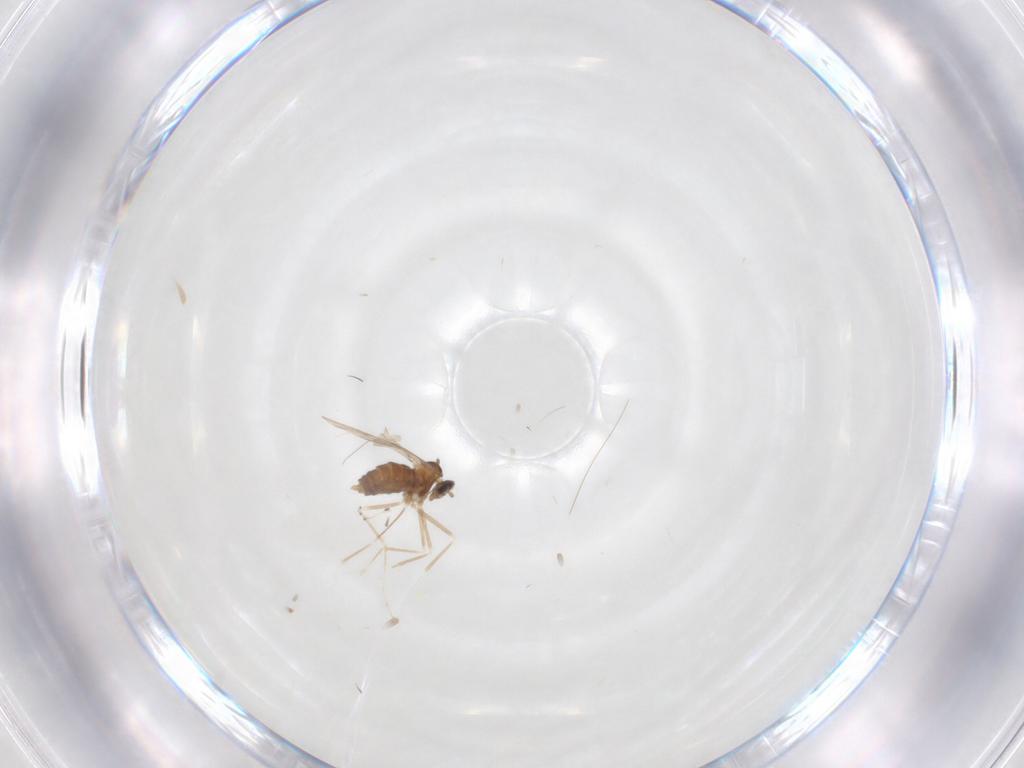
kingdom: Animalia
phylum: Arthropoda
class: Insecta
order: Diptera
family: Cecidomyiidae
